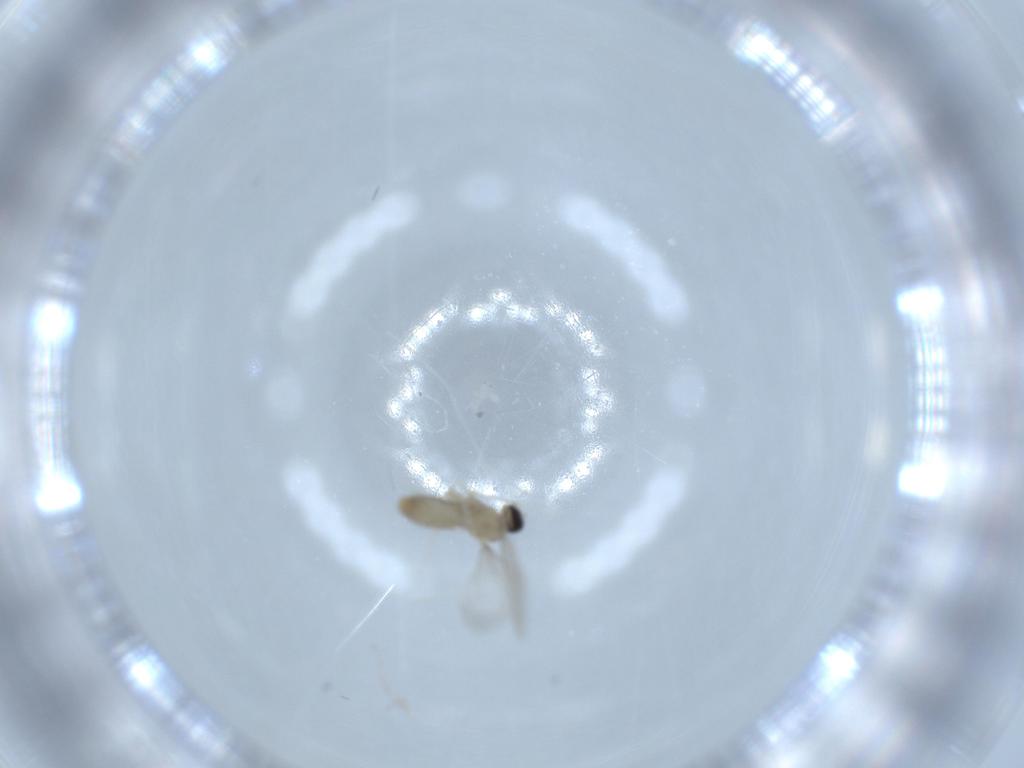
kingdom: Animalia
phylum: Arthropoda
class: Insecta
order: Diptera
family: Cecidomyiidae
